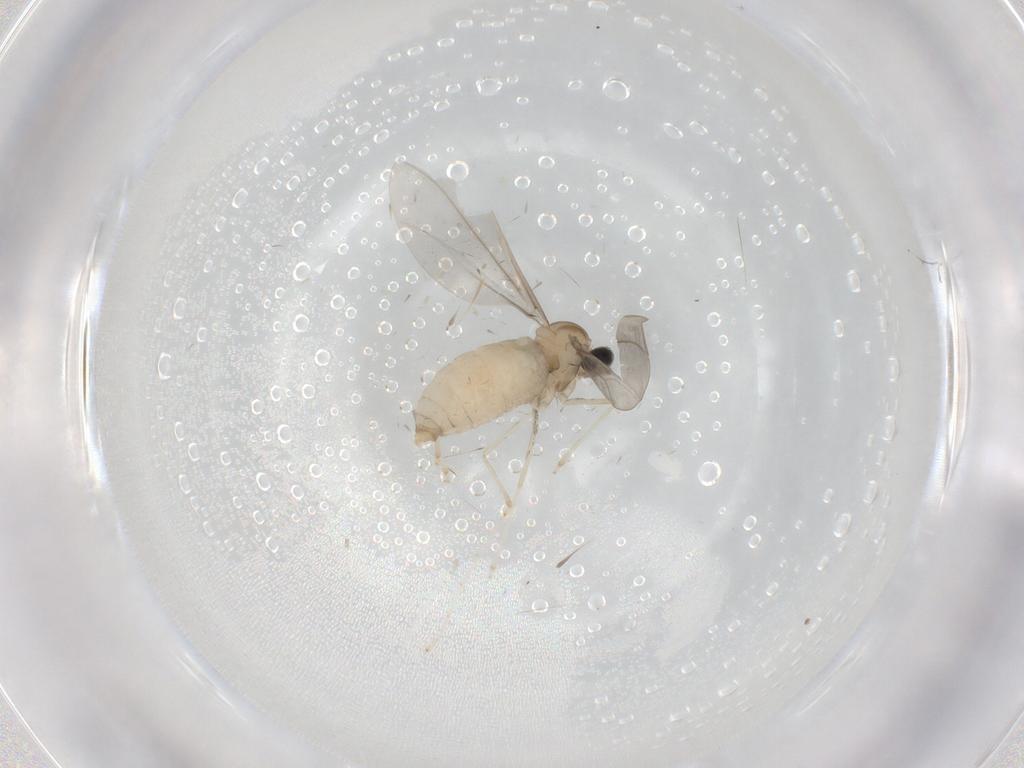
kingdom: Animalia
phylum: Arthropoda
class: Insecta
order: Diptera
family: Cecidomyiidae
